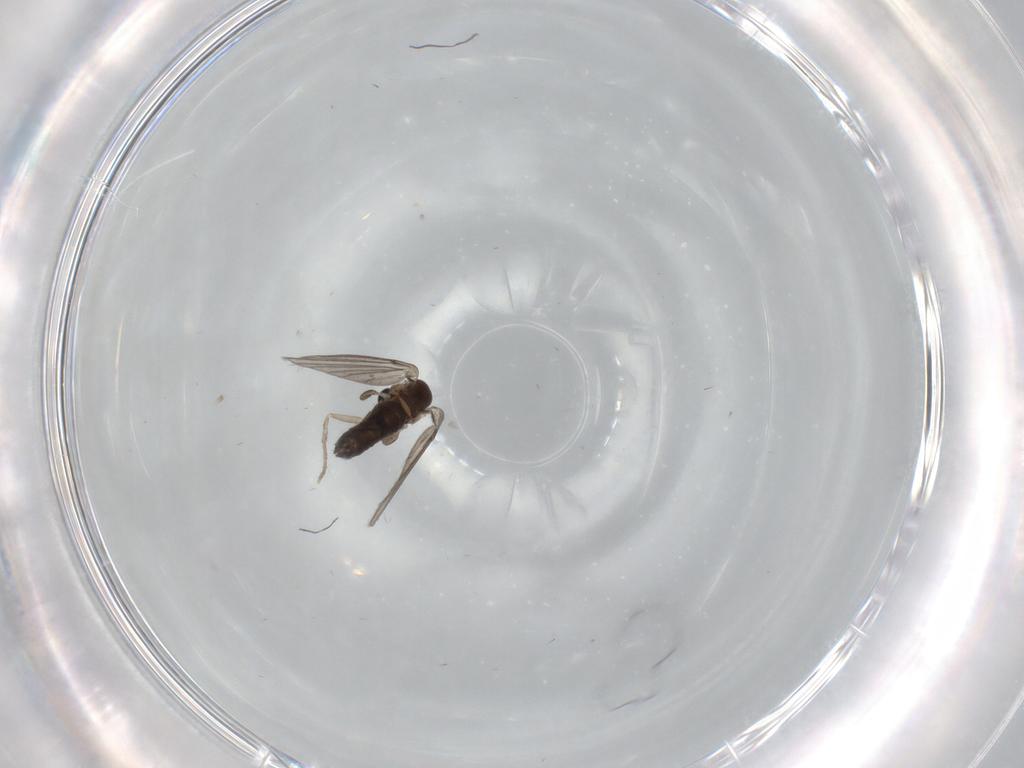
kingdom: Animalia
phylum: Arthropoda
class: Insecta
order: Diptera
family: Psychodidae
